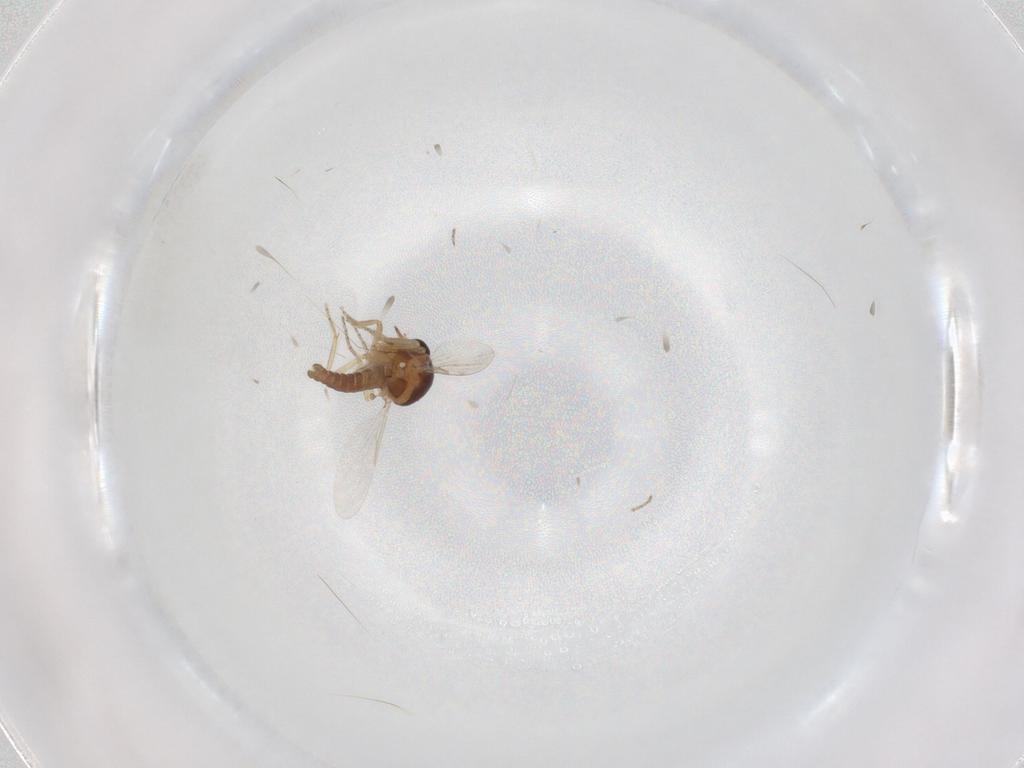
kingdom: Animalia
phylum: Arthropoda
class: Insecta
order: Diptera
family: Ceratopogonidae
